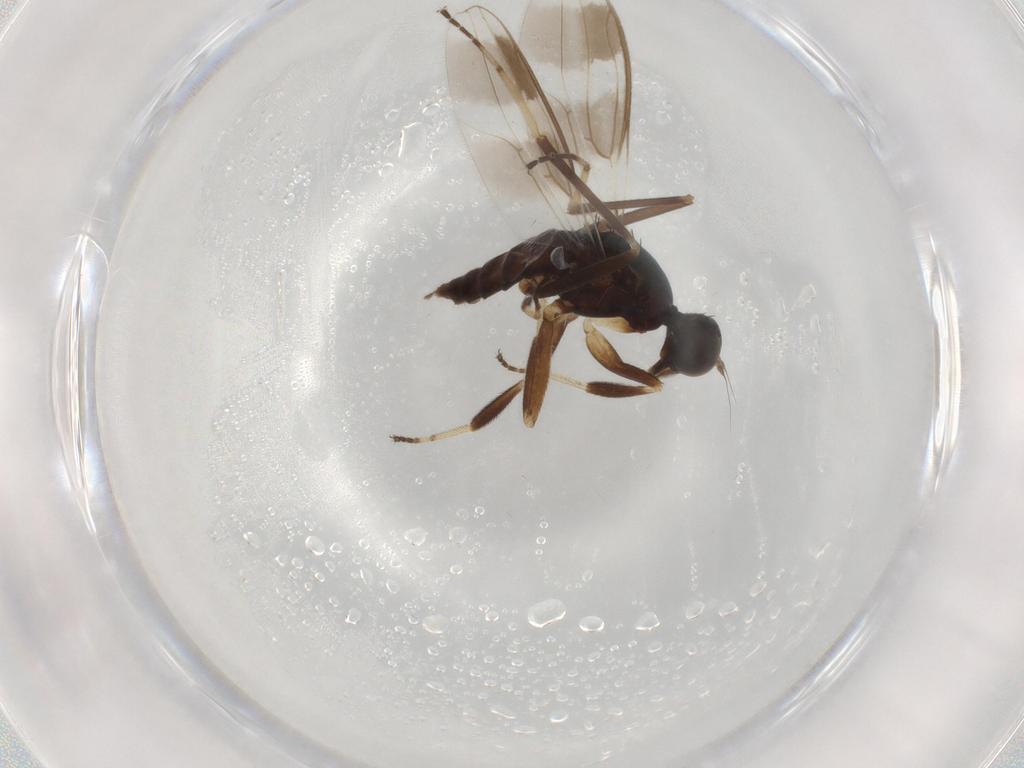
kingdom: Animalia
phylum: Arthropoda
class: Insecta
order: Diptera
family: Hybotidae
